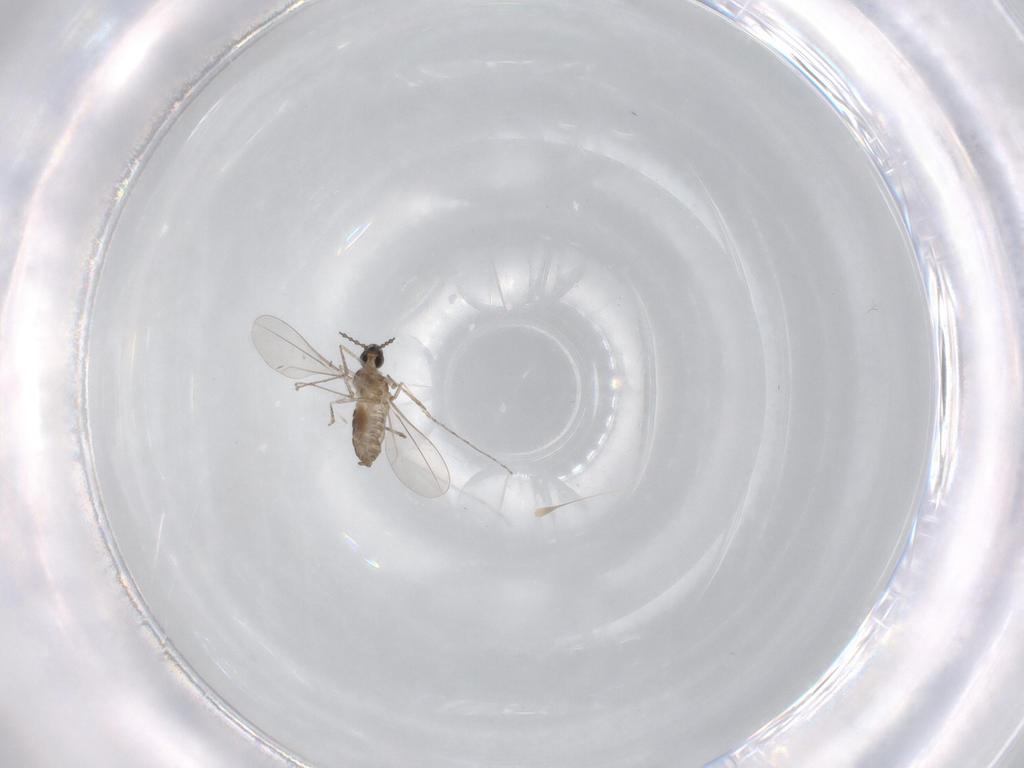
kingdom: Animalia
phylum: Arthropoda
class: Insecta
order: Diptera
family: Cecidomyiidae
